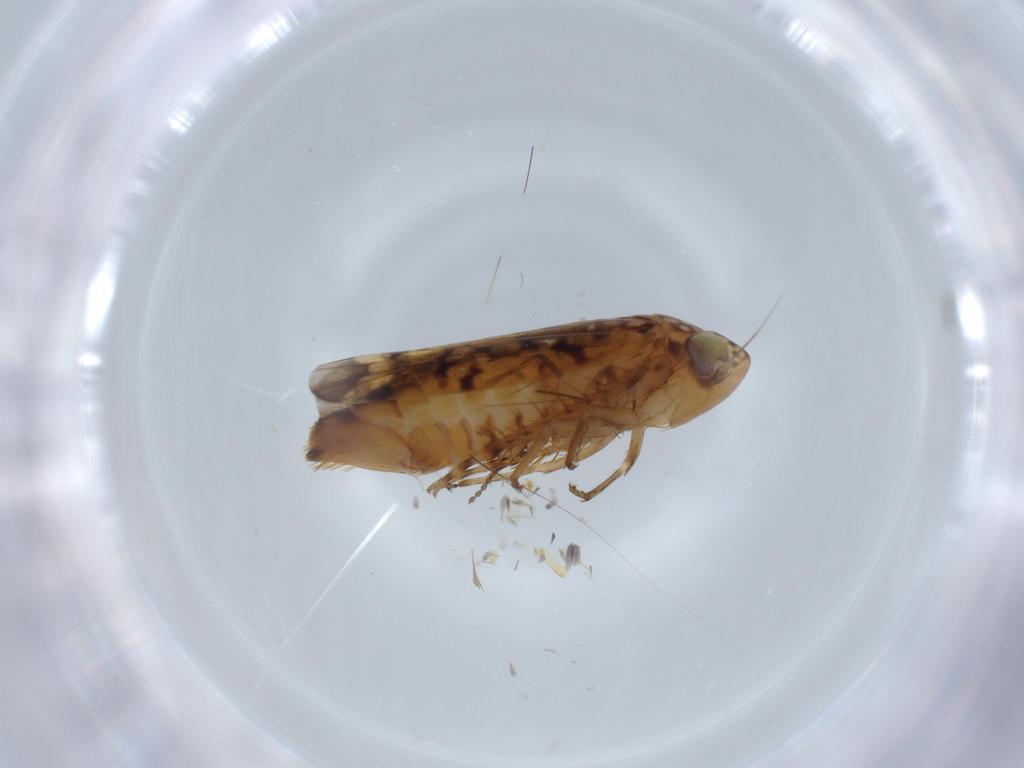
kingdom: Animalia
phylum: Arthropoda
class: Insecta
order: Hemiptera
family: Cicadellidae
